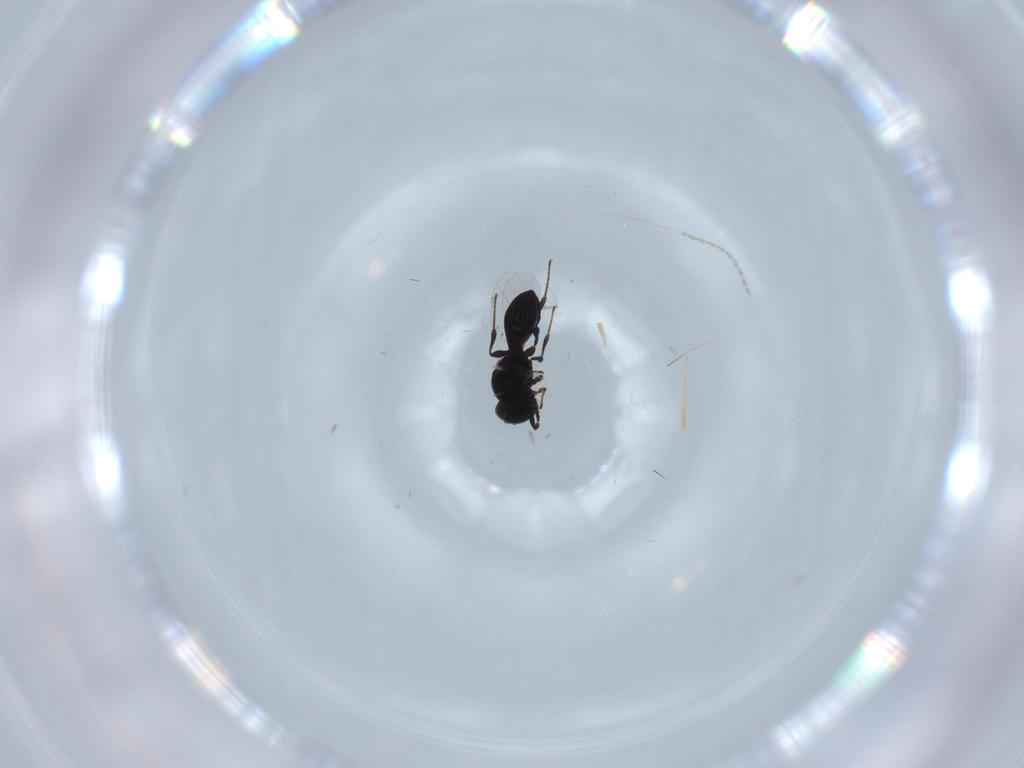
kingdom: Animalia
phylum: Arthropoda
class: Insecta
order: Diptera
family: Mythicomyiidae
